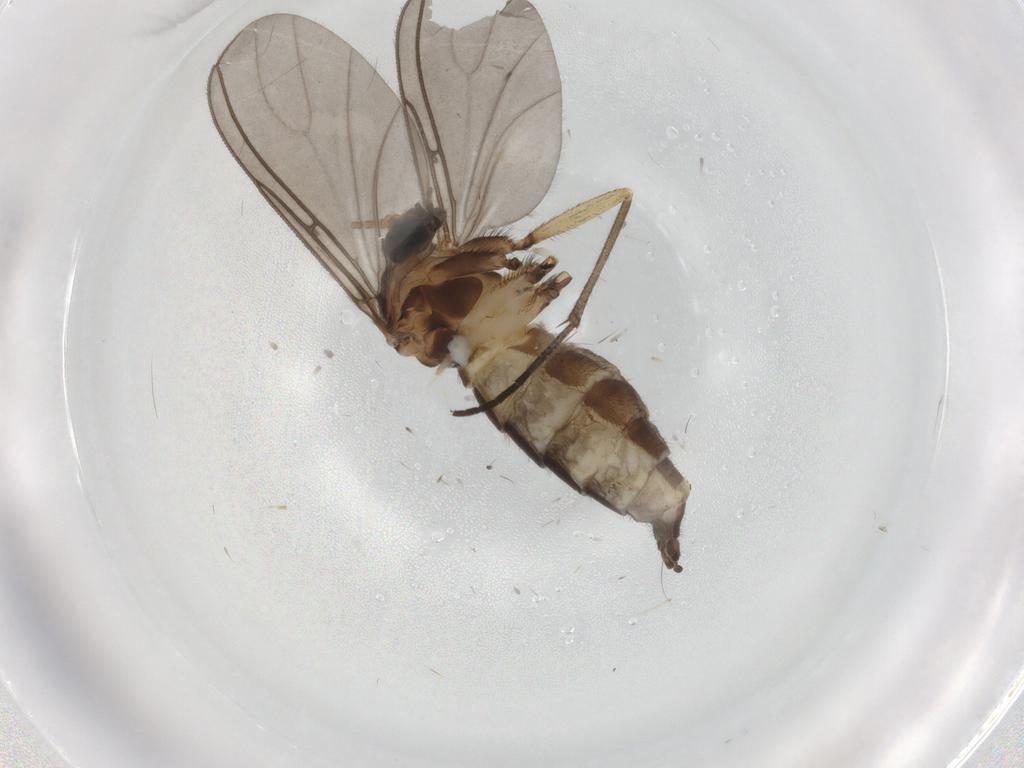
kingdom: Animalia
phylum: Arthropoda
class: Insecta
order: Diptera
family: Sciaridae
